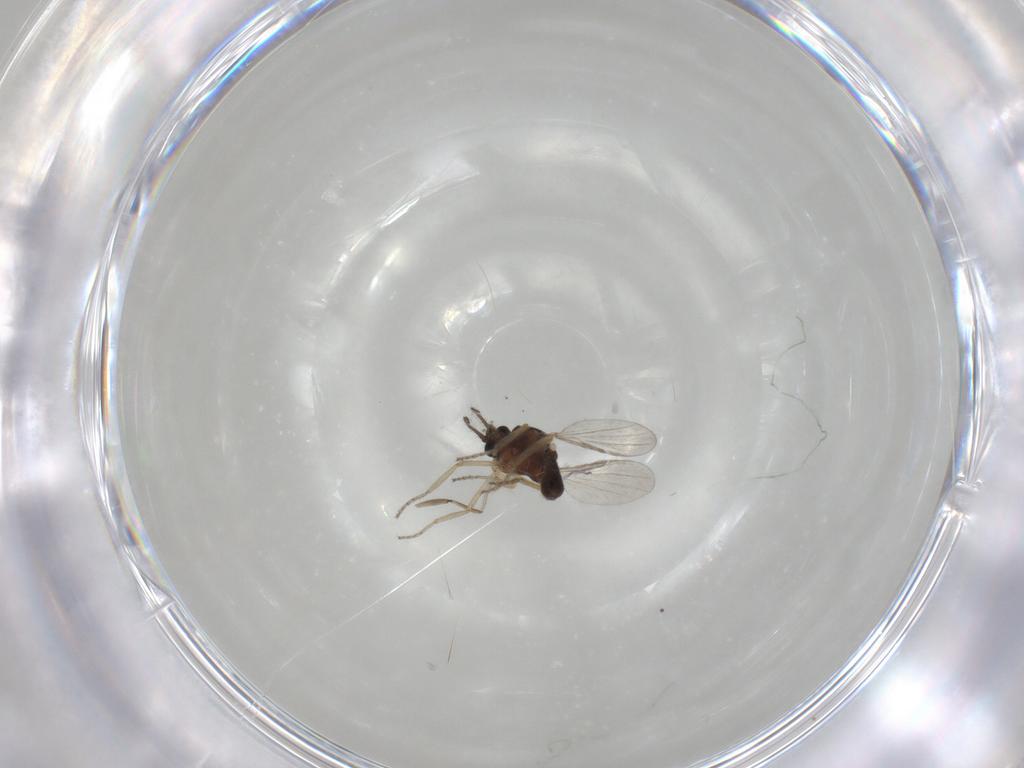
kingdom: Animalia
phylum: Arthropoda
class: Insecta
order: Diptera
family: Ceratopogonidae
